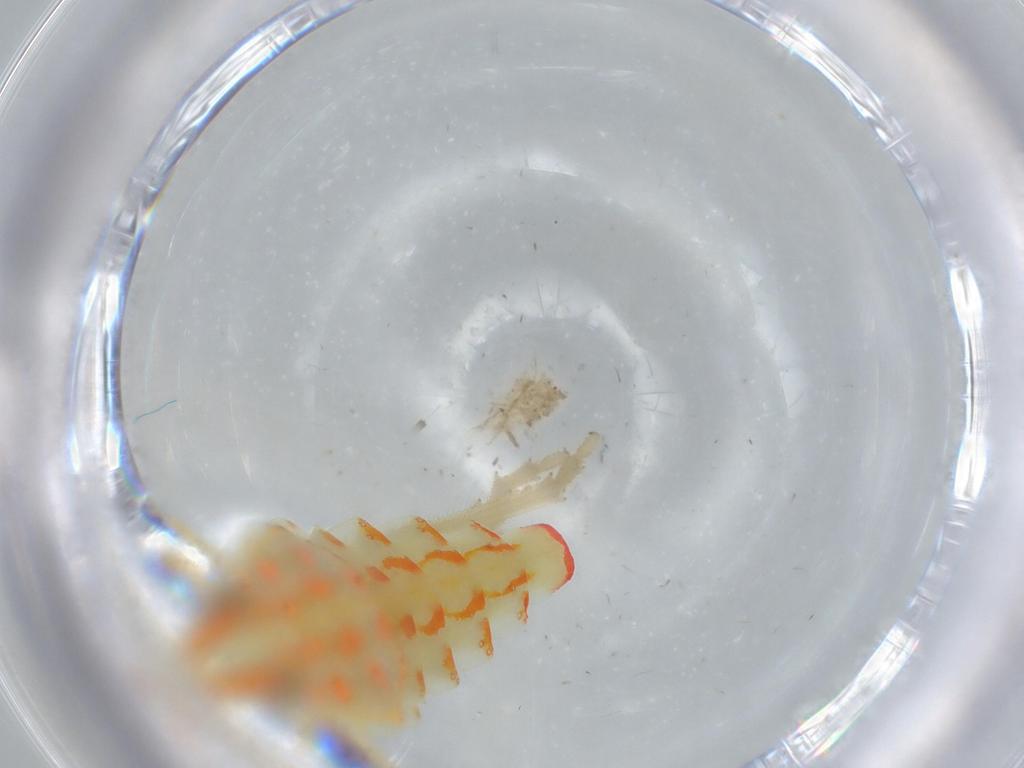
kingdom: Animalia
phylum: Arthropoda
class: Insecta
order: Hemiptera
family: Tropiduchidae
